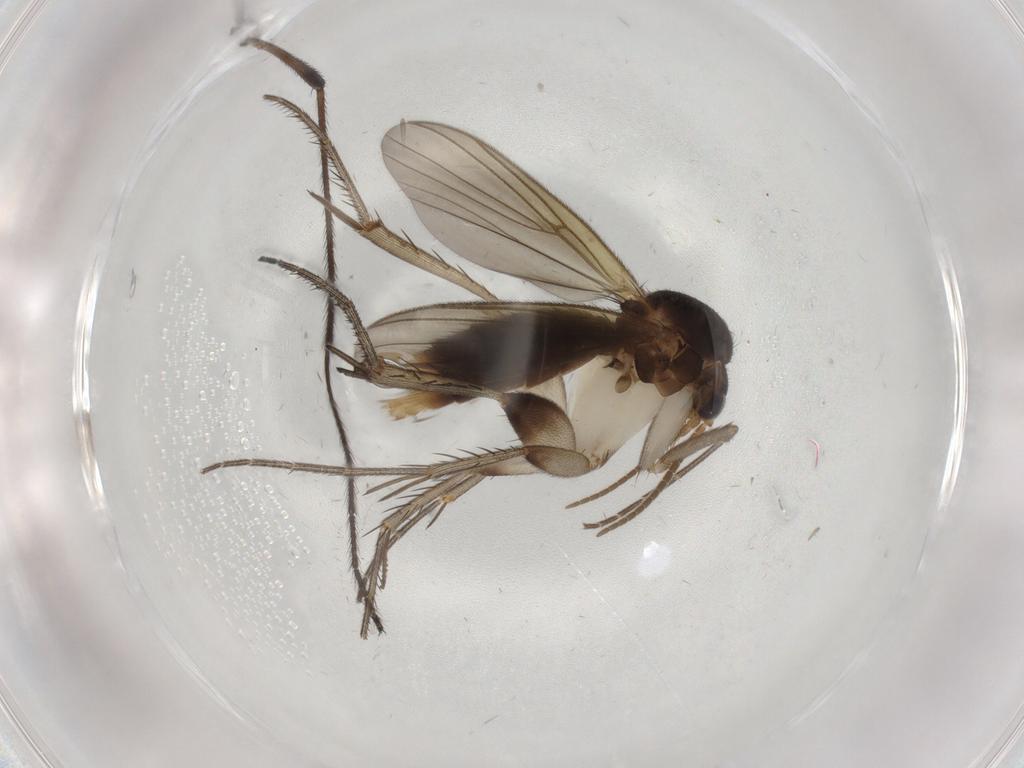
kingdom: Animalia
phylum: Arthropoda
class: Insecta
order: Diptera
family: Mycetophilidae
